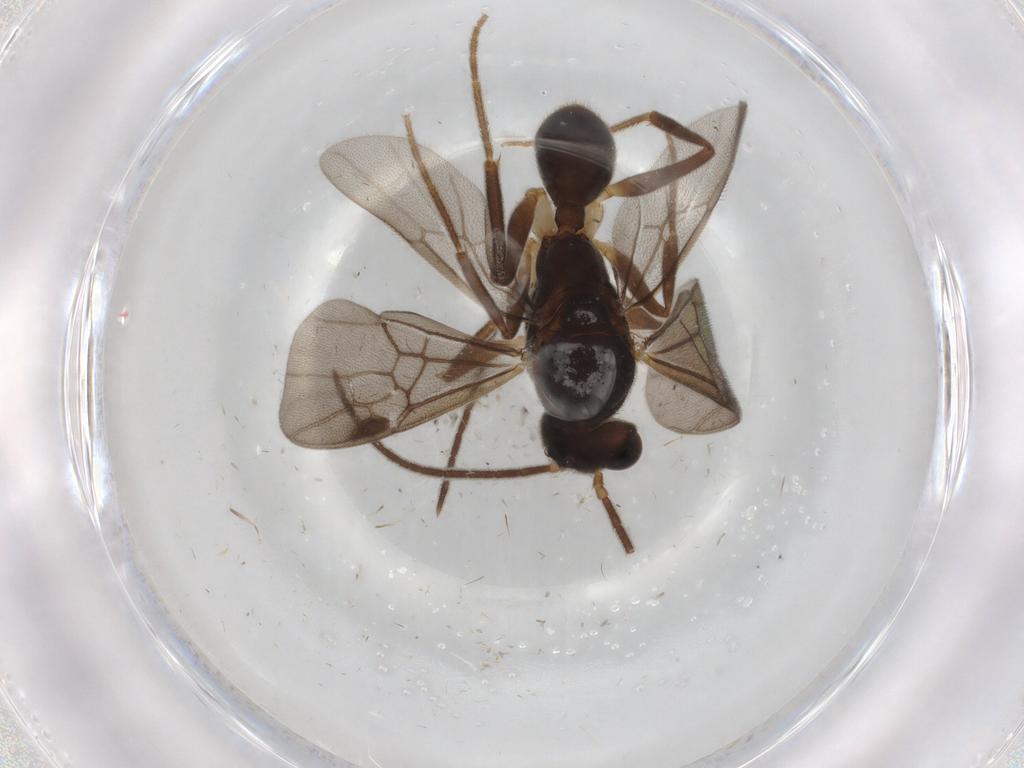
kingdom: Animalia
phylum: Arthropoda
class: Insecta
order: Hymenoptera
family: Formicidae
